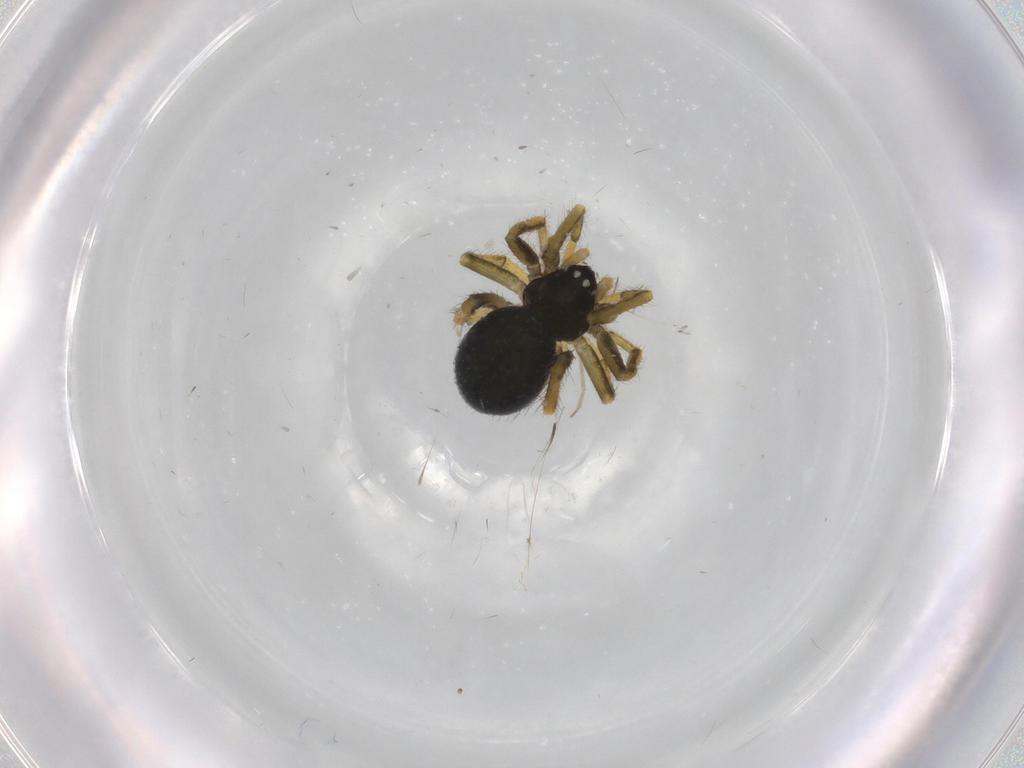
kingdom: Animalia
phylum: Arthropoda
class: Arachnida
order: Araneae
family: Theridiidae
